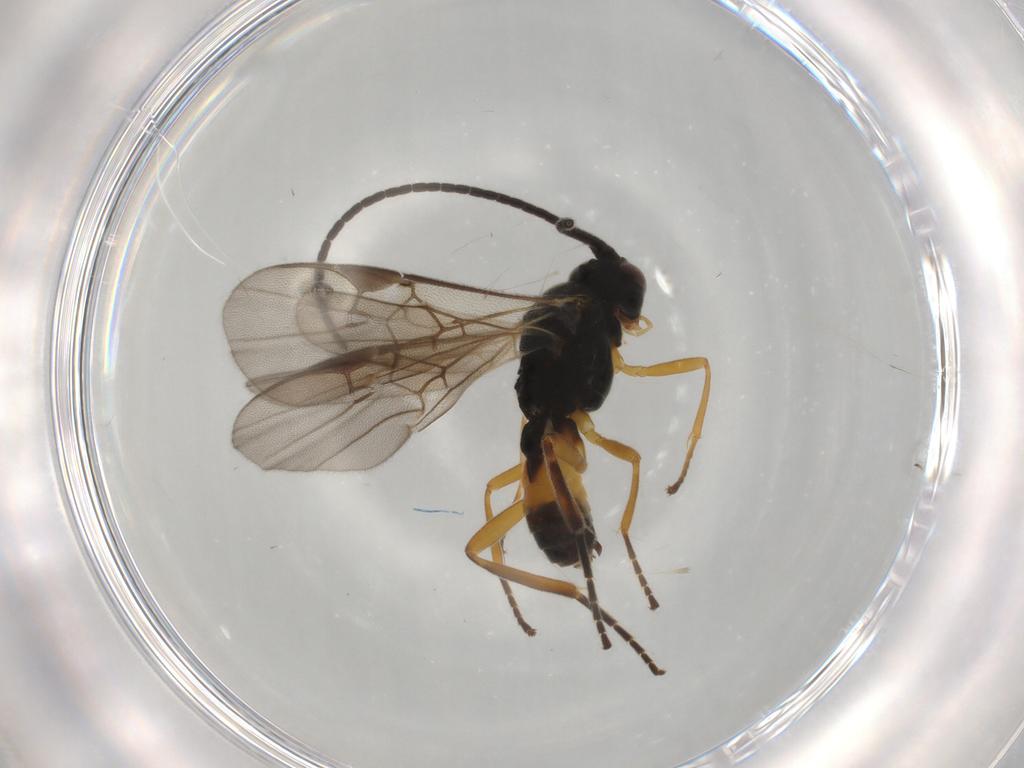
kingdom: Animalia
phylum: Arthropoda
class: Insecta
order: Hymenoptera
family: Braconidae
